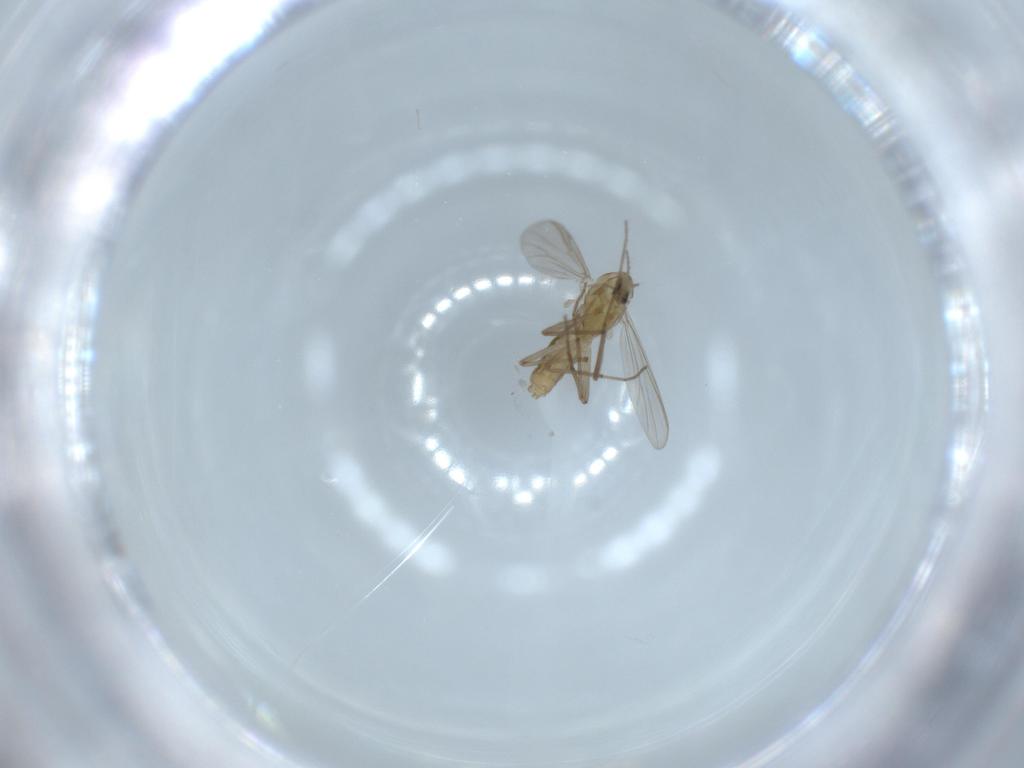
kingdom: Animalia
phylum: Arthropoda
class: Insecta
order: Diptera
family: Chironomidae
